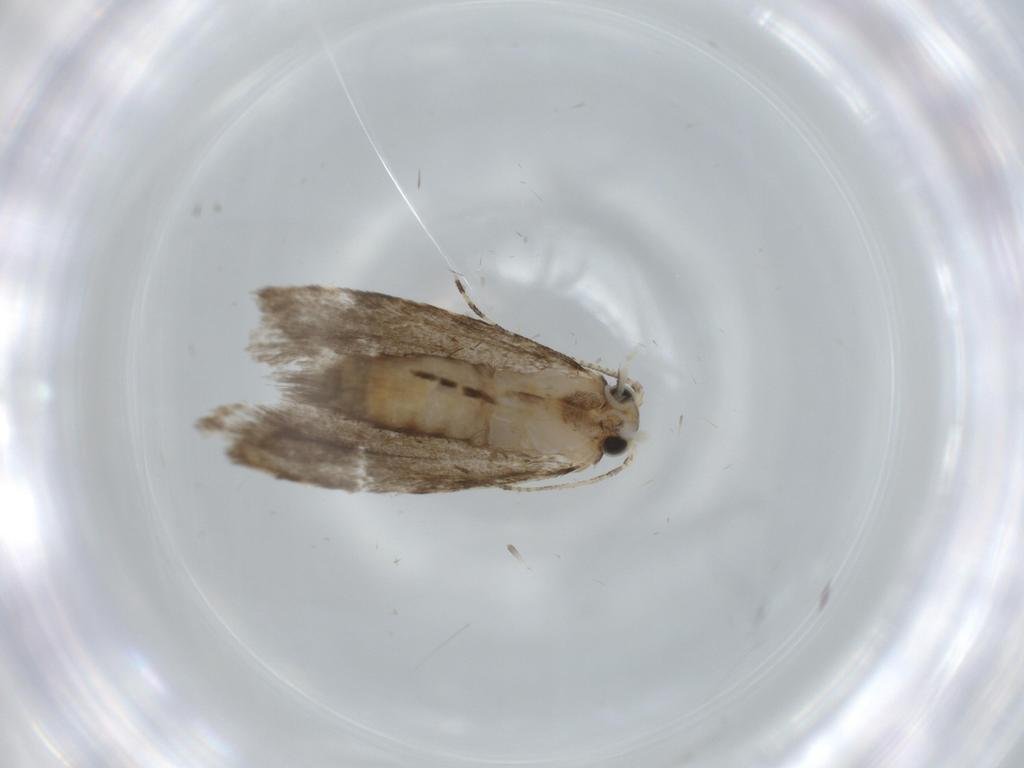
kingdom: Animalia
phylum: Arthropoda
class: Insecta
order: Lepidoptera
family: Tineidae
